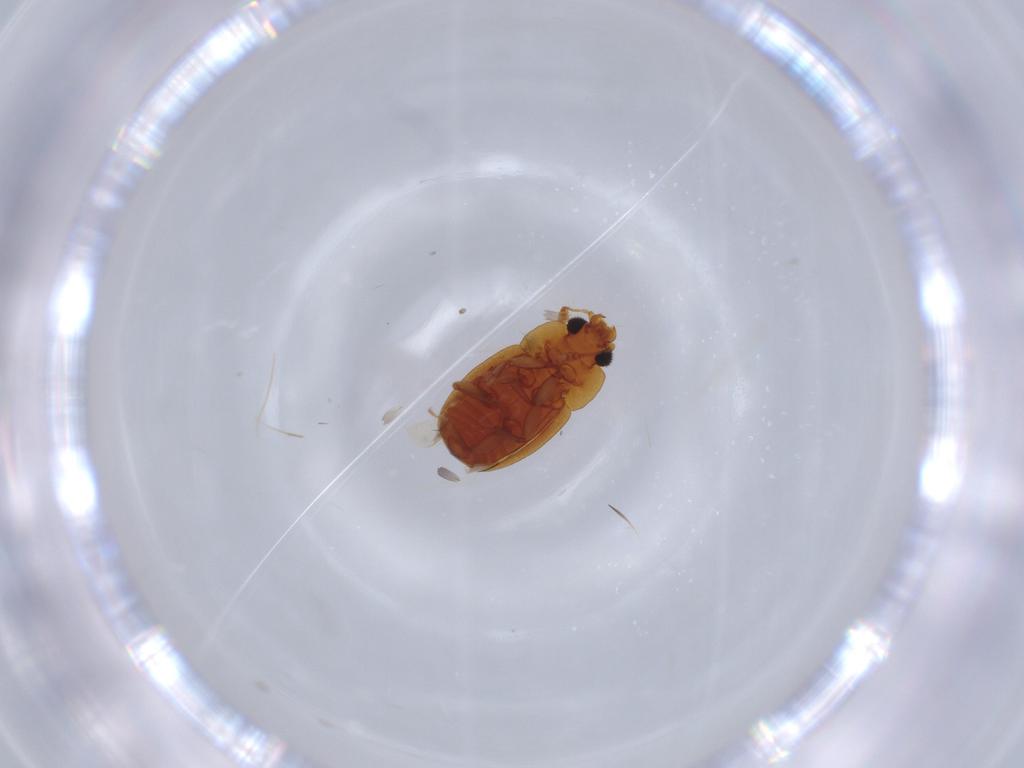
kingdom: Animalia
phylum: Arthropoda
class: Insecta
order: Coleoptera
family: Nitidulidae
